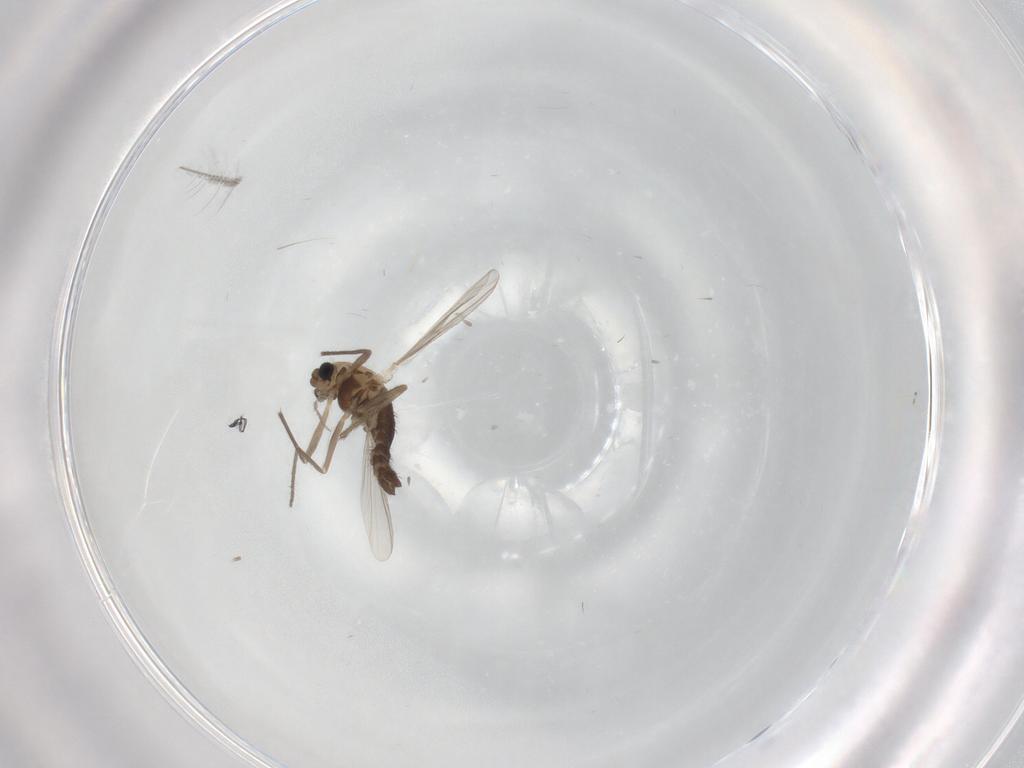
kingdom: Animalia
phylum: Arthropoda
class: Insecta
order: Diptera
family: Chironomidae
